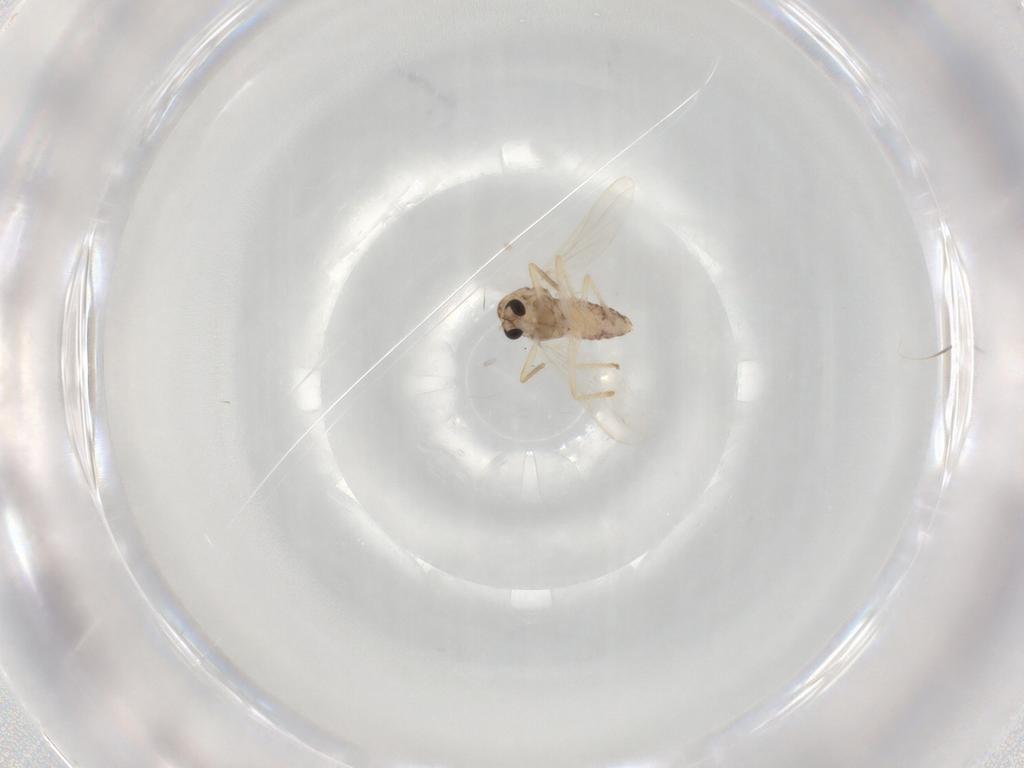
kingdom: Animalia
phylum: Arthropoda
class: Insecta
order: Diptera
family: Chironomidae
